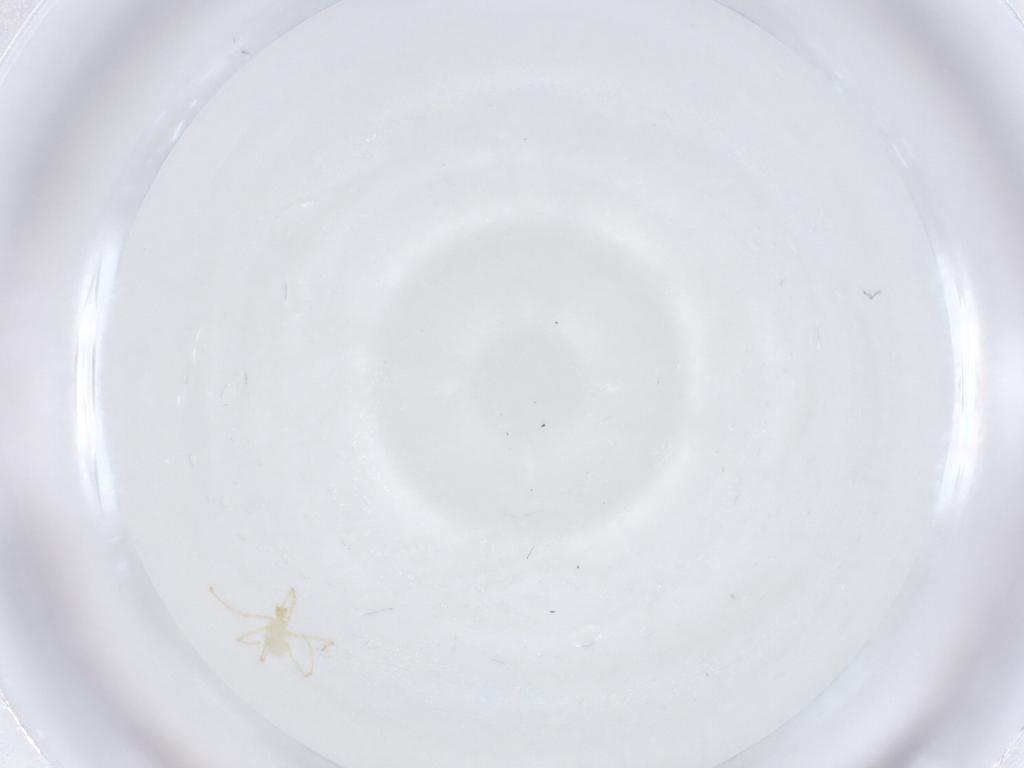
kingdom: Animalia
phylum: Arthropoda
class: Arachnida
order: Trombidiformes
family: Erythraeidae
